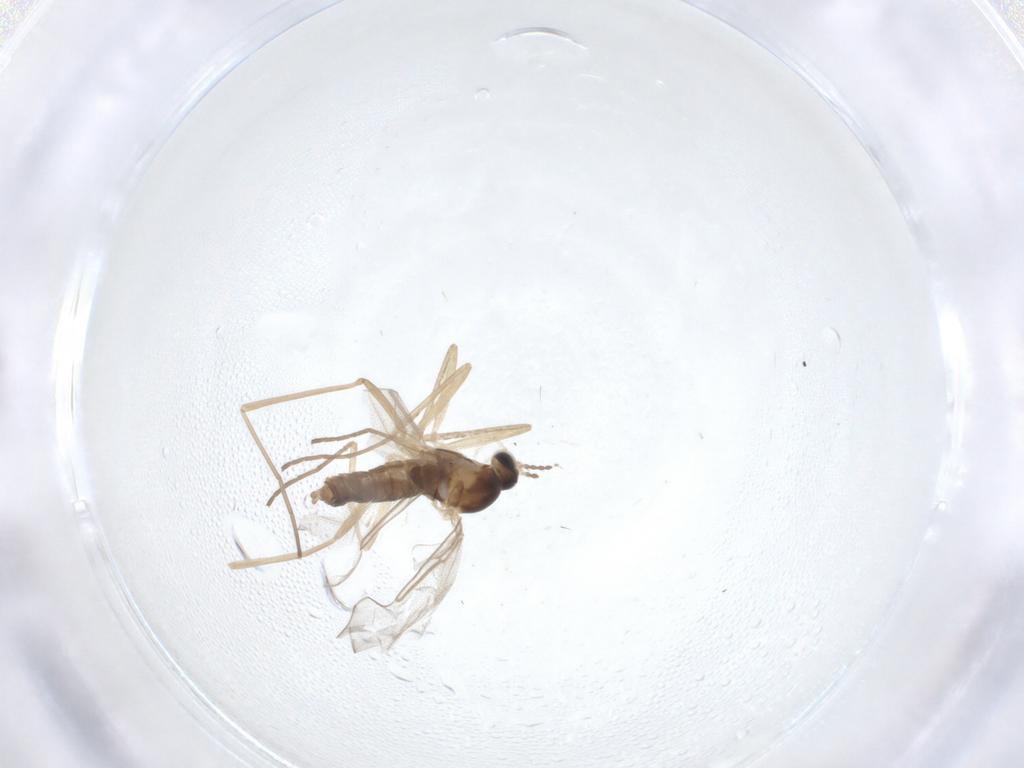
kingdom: Animalia
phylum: Arthropoda
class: Insecta
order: Diptera
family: Cecidomyiidae
